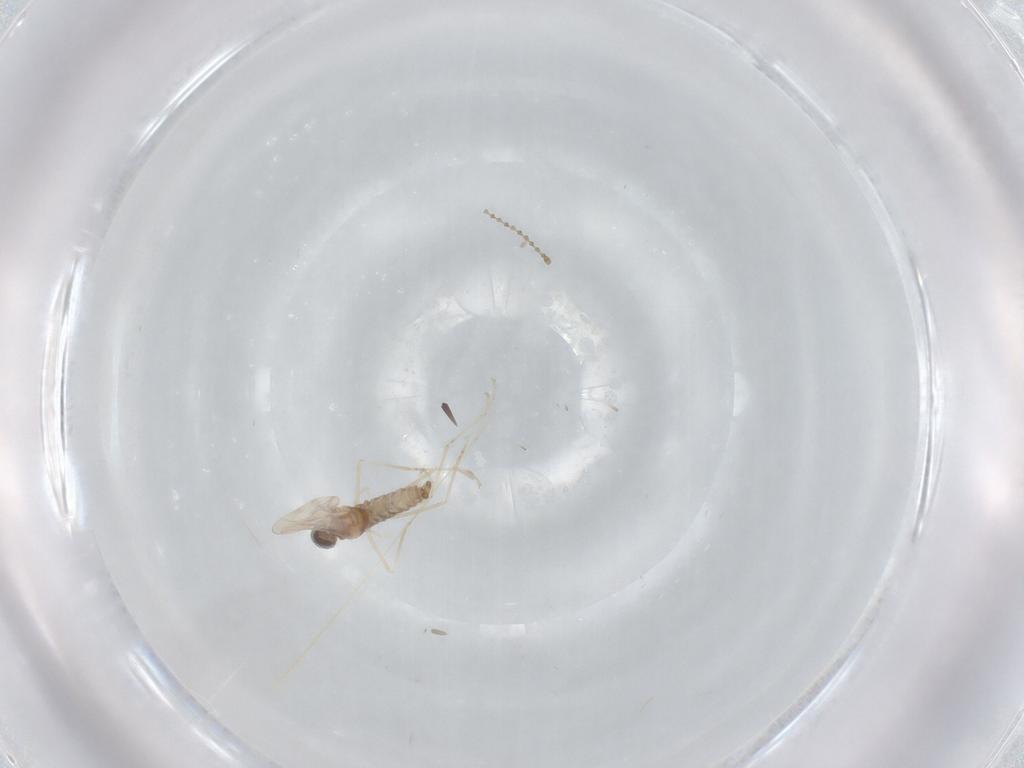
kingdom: Animalia
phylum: Arthropoda
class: Insecta
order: Diptera
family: Cecidomyiidae
